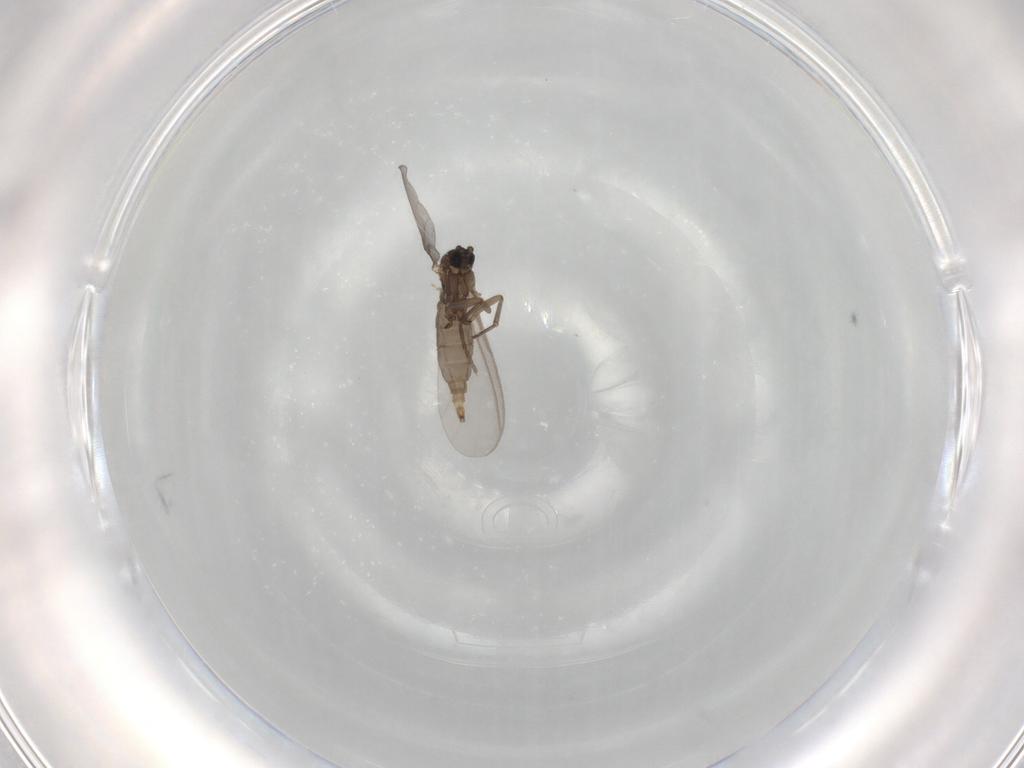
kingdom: Animalia
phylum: Arthropoda
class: Insecta
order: Diptera
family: Sciaridae
